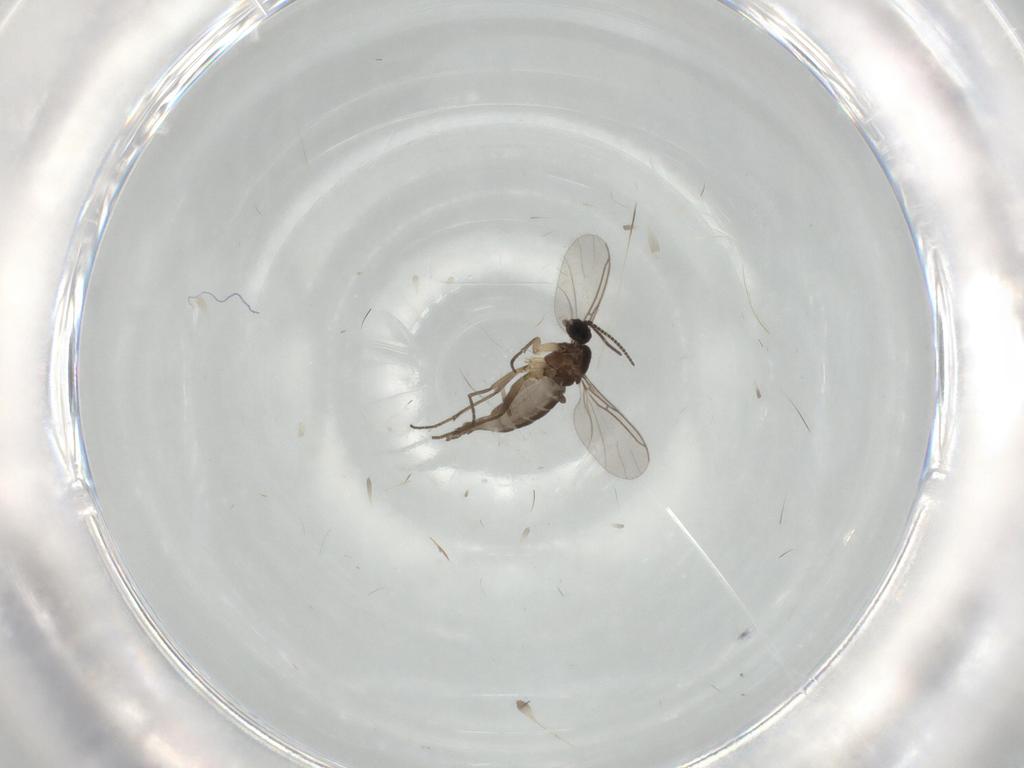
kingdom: Animalia
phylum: Arthropoda
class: Insecta
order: Diptera
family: Sciaridae
